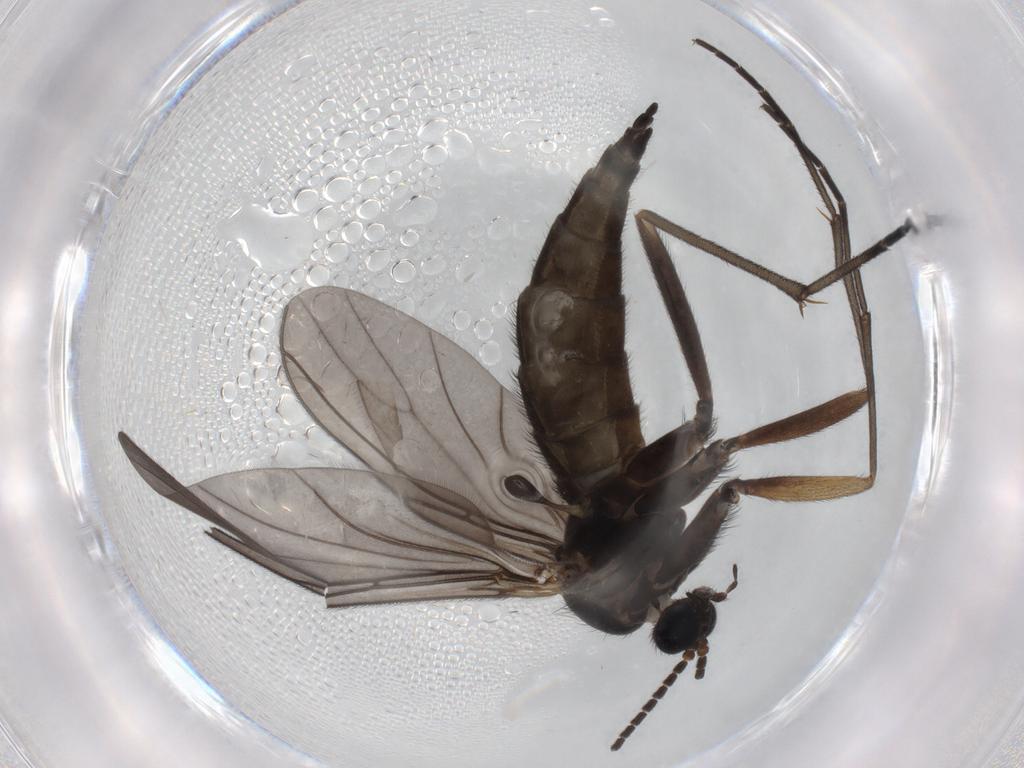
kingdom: Animalia
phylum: Arthropoda
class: Insecta
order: Diptera
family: Sciaridae
